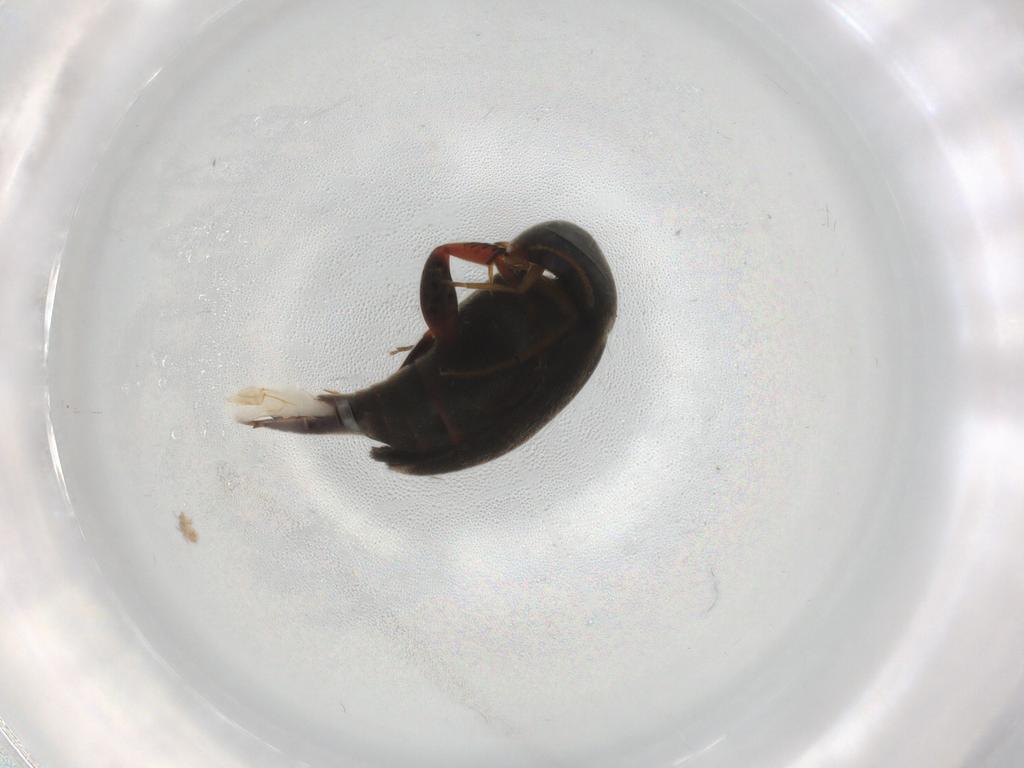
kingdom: Animalia
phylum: Arthropoda
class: Insecta
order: Coleoptera
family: Mordellidae
